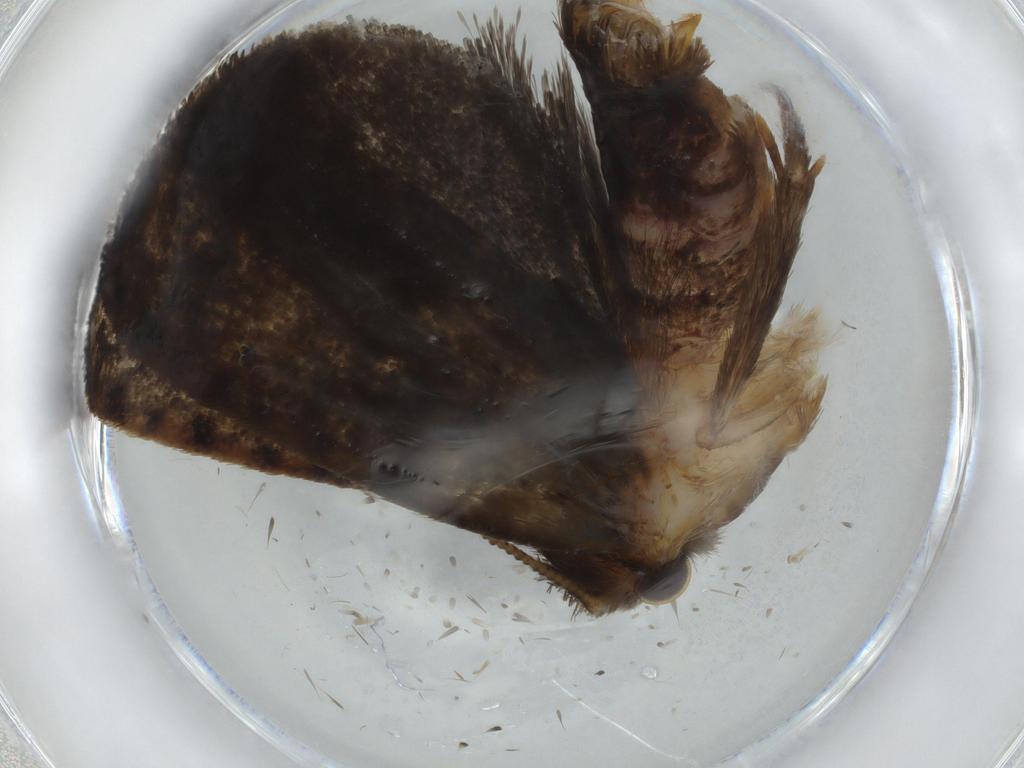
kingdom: Animalia
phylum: Arthropoda
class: Insecta
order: Lepidoptera
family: Tineidae
